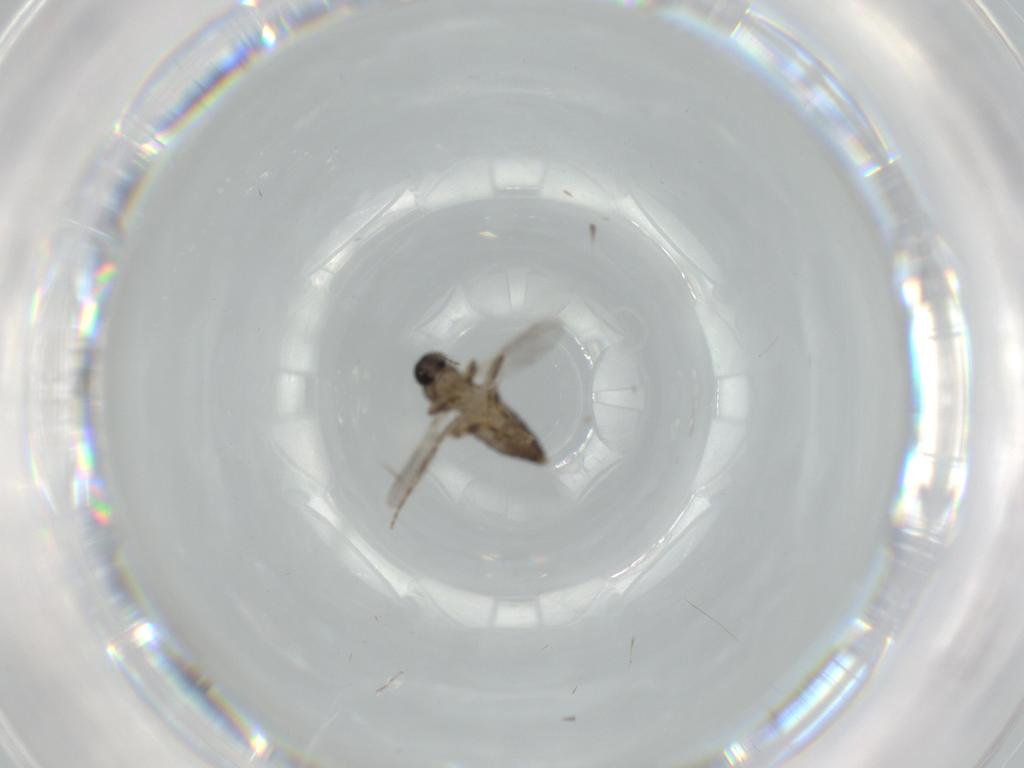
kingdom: Animalia
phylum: Arthropoda
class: Insecta
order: Diptera
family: Ceratopogonidae
